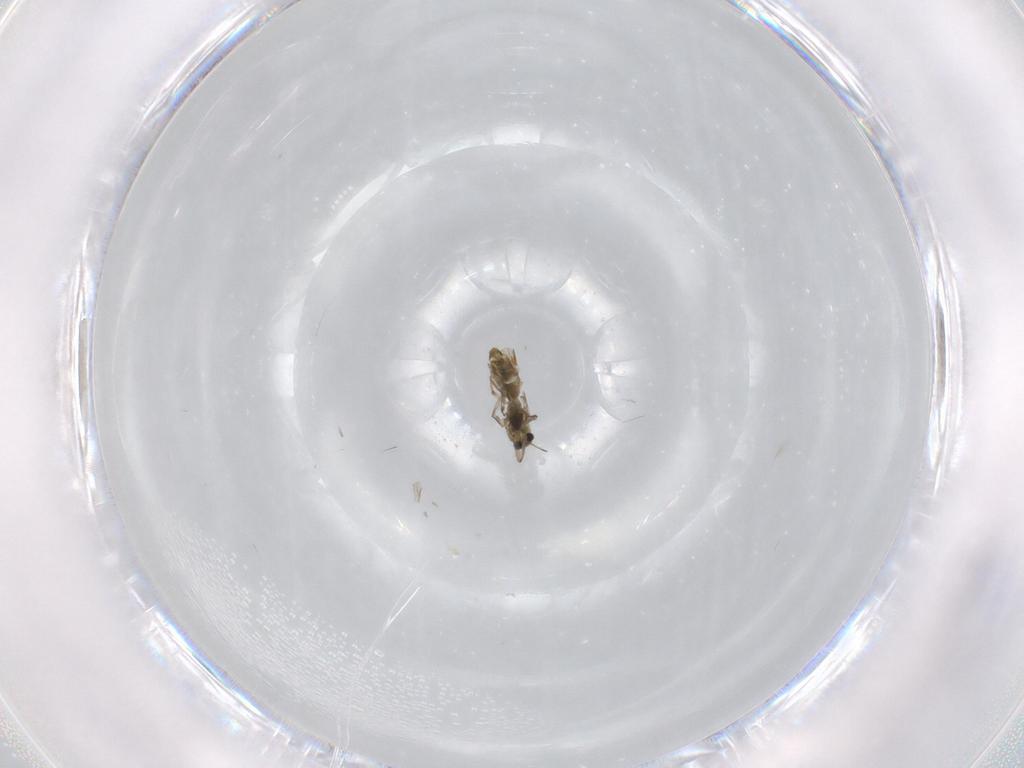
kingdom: Animalia
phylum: Arthropoda
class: Insecta
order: Diptera
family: Chironomidae
